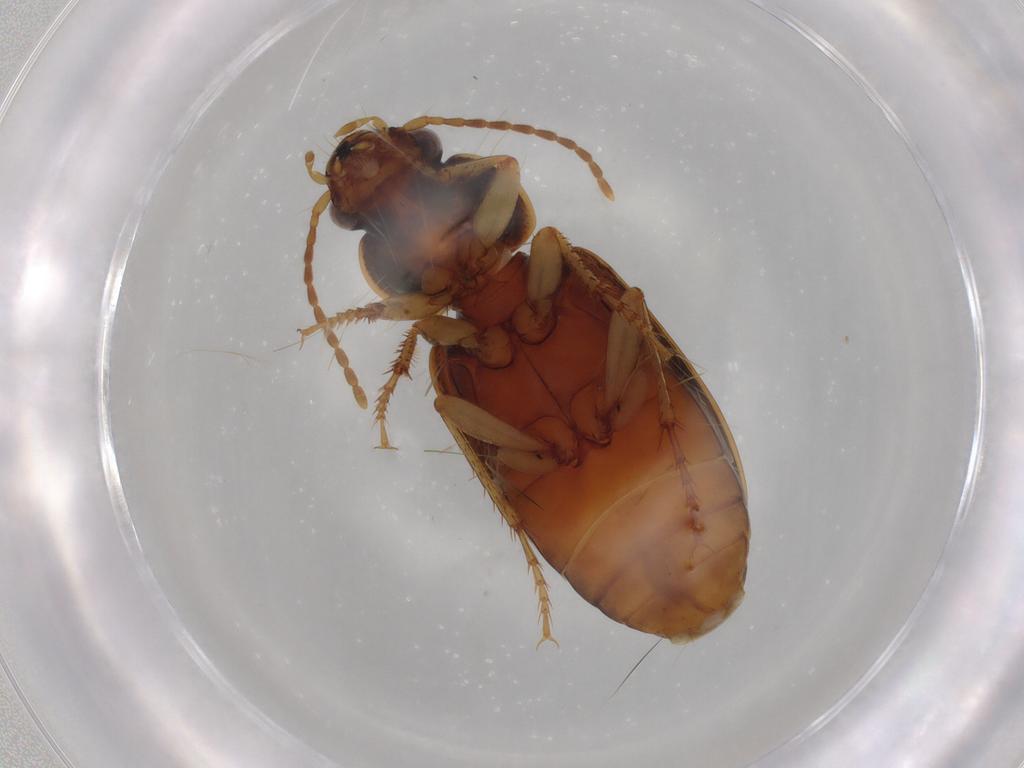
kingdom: Animalia
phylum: Arthropoda
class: Insecta
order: Coleoptera
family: Carabidae
